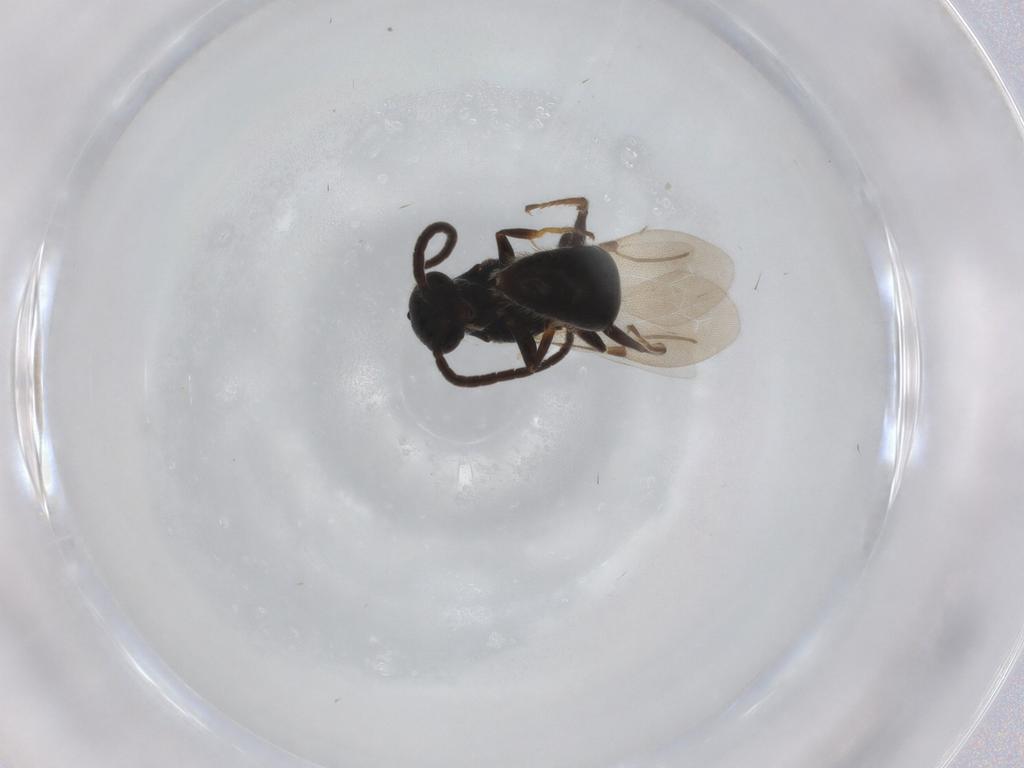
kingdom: Animalia
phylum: Arthropoda
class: Insecta
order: Hymenoptera
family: Bethylidae
